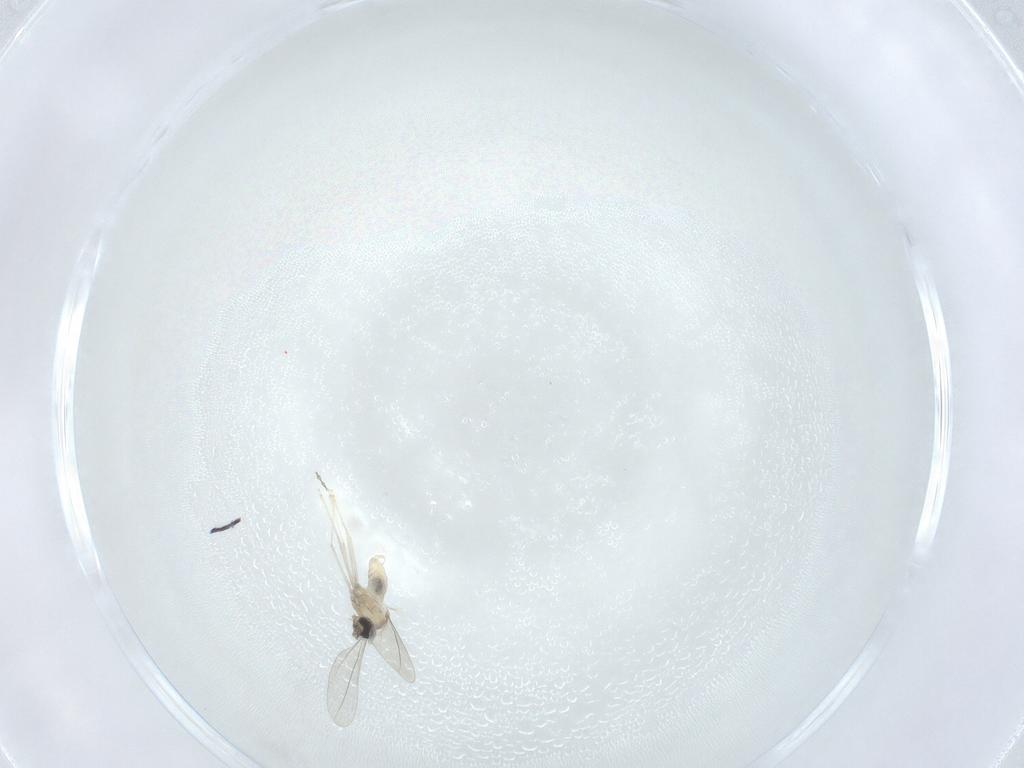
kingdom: Animalia
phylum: Arthropoda
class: Insecta
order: Diptera
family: Cecidomyiidae
